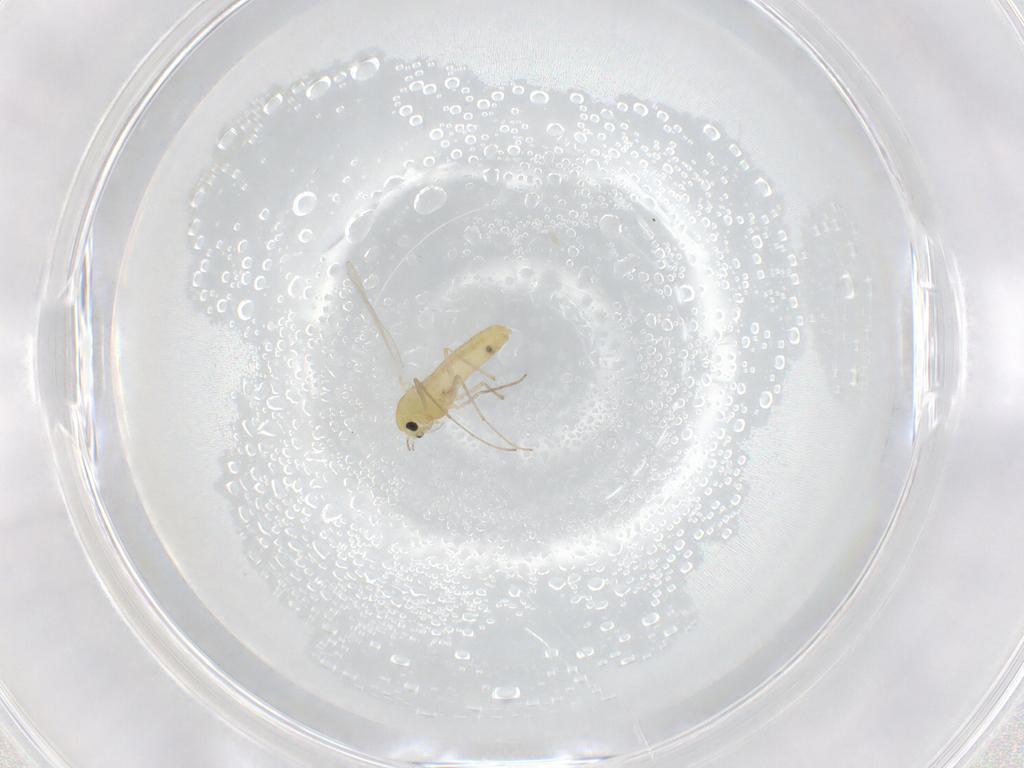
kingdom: Animalia
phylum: Arthropoda
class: Insecta
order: Diptera
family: Chironomidae
